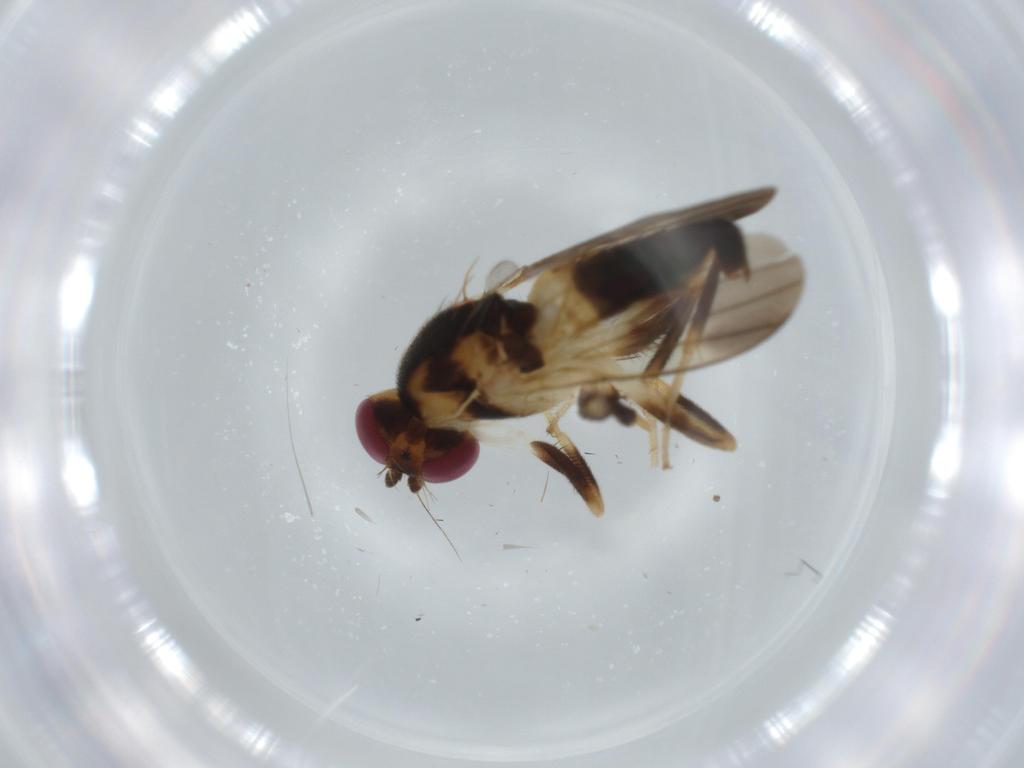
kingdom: Animalia
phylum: Arthropoda
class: Insecta
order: Diptera
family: Clusiidae
